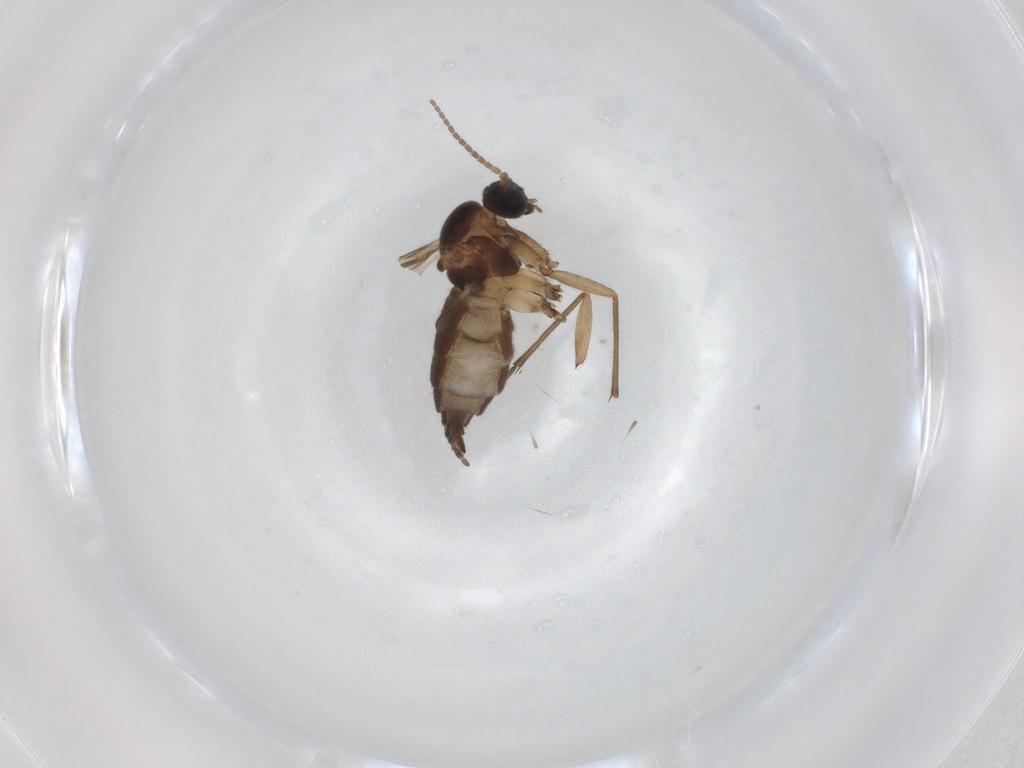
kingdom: Animalia
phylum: Arthropoda
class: Insecta
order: Diptera
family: Sciaridae
